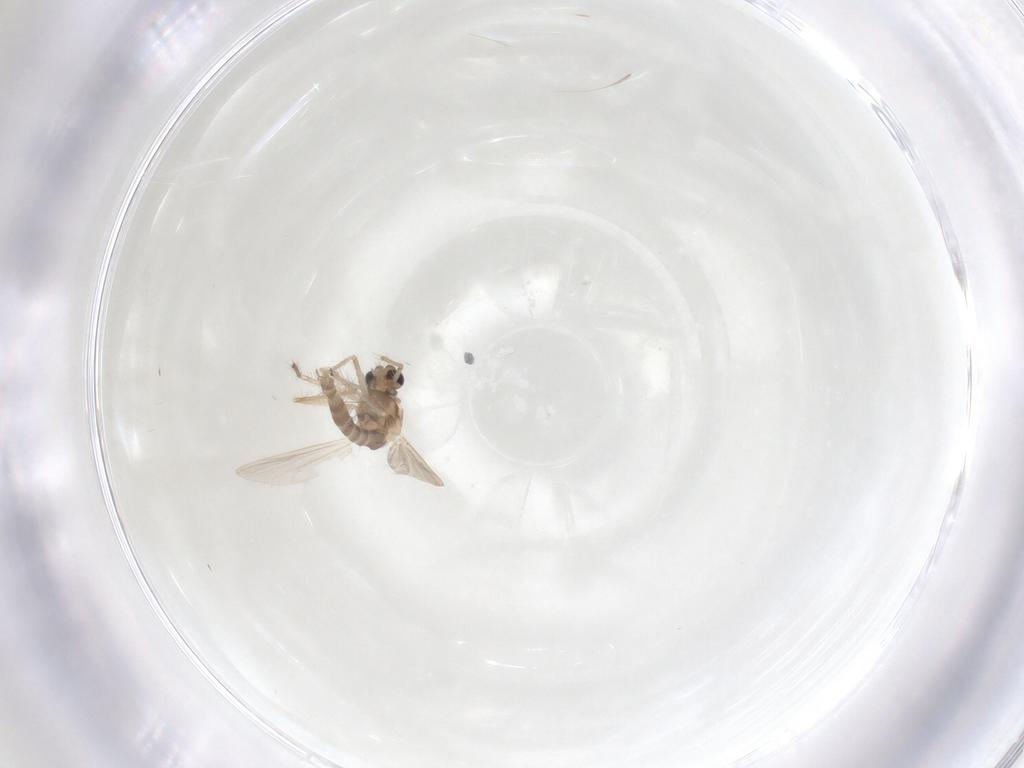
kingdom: Animalia
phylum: Arthropoda
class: Insecta
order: Diptera
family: Chironomidae
